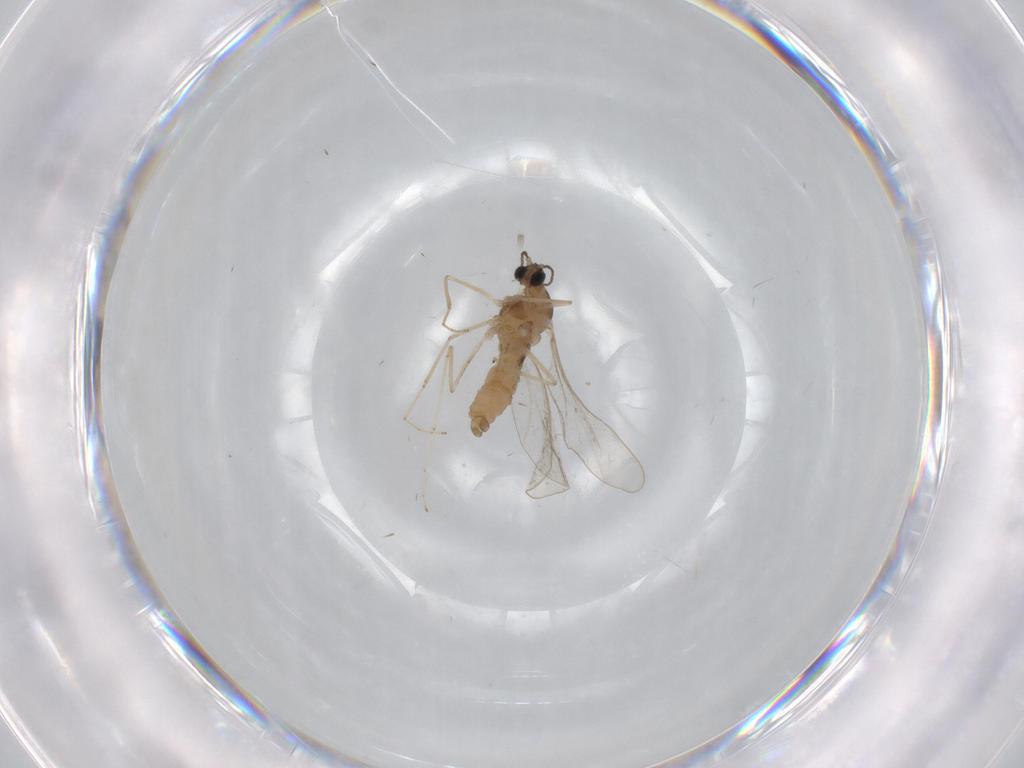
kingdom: Animalia
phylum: Arthropoda
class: Insecta
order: Diptera
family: Cecidomyiidae
